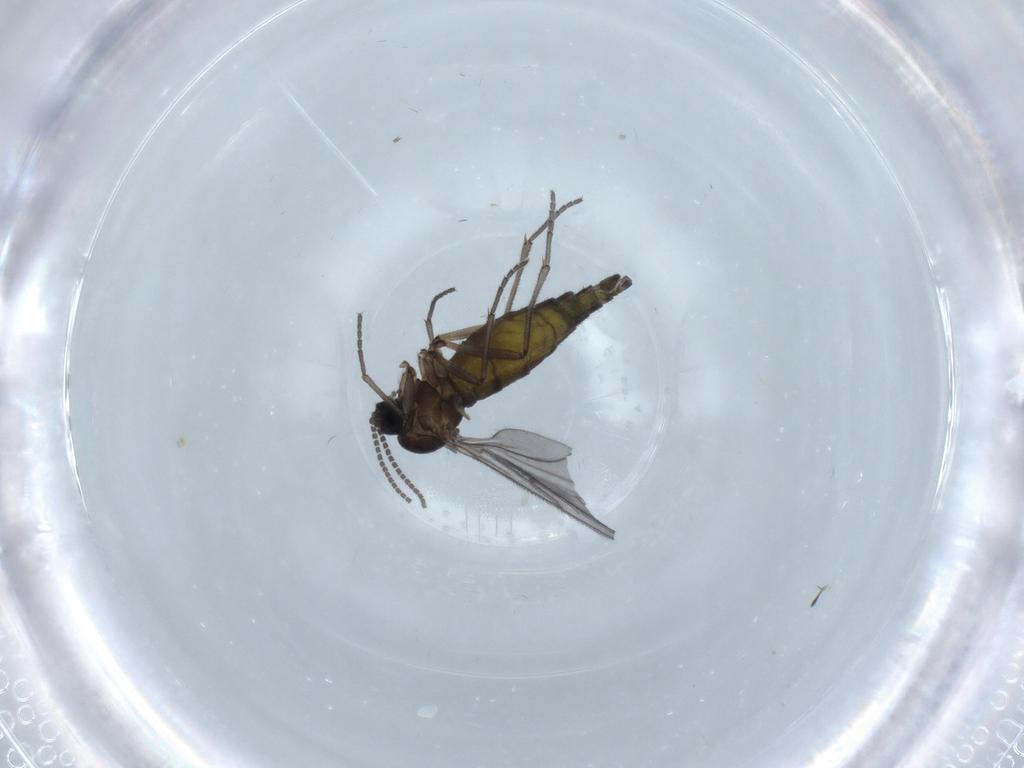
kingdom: Animalia
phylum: Arthropoda
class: Insecta
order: Diptera
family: Sciaridae
